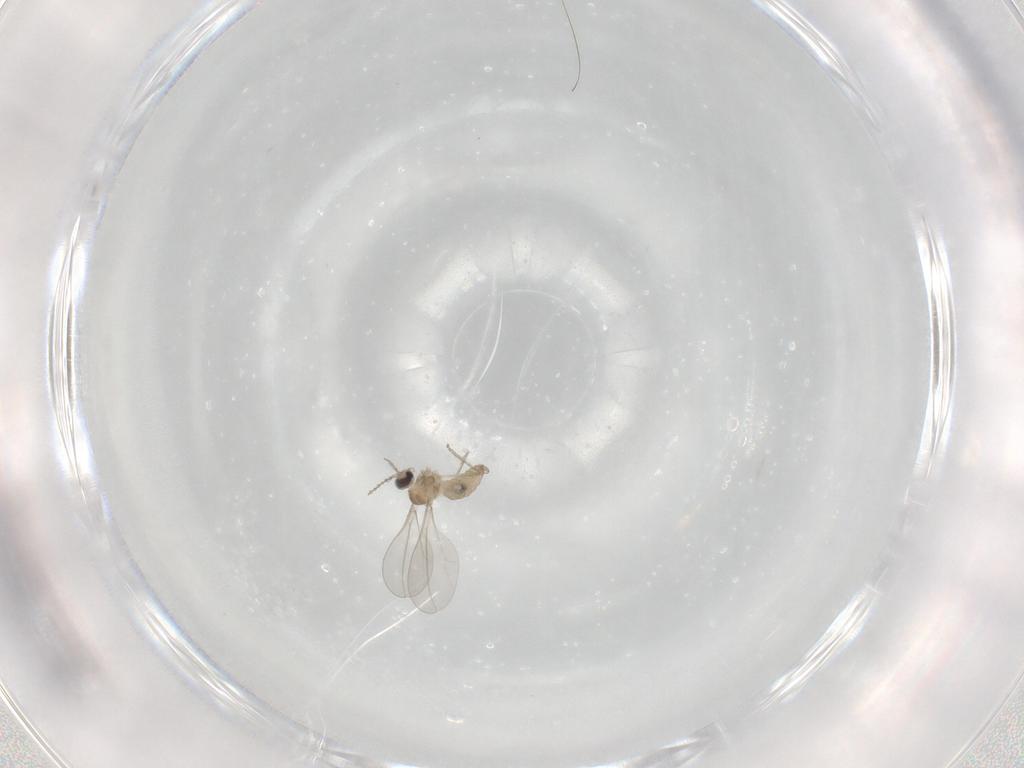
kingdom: Animalia
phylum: Arthropoda
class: Insecta
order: Diptera
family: Cecidomyiidae
